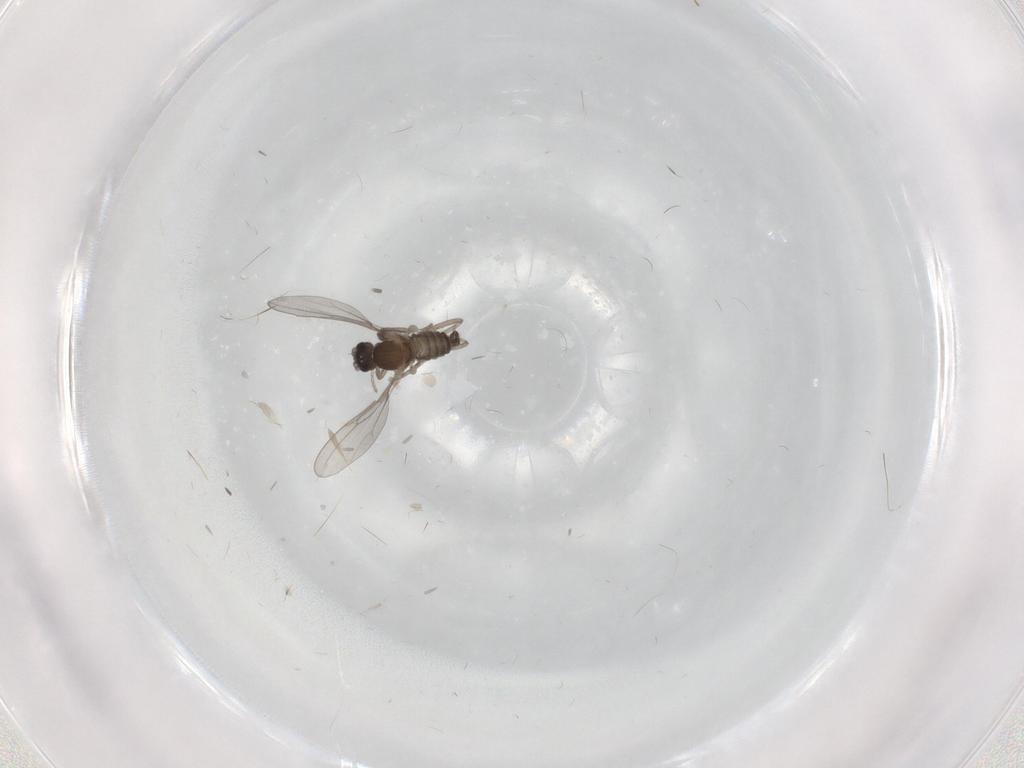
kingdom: Animalia
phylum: Arthropoda
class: Insecta
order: Diptera
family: Cecidomyiidae
